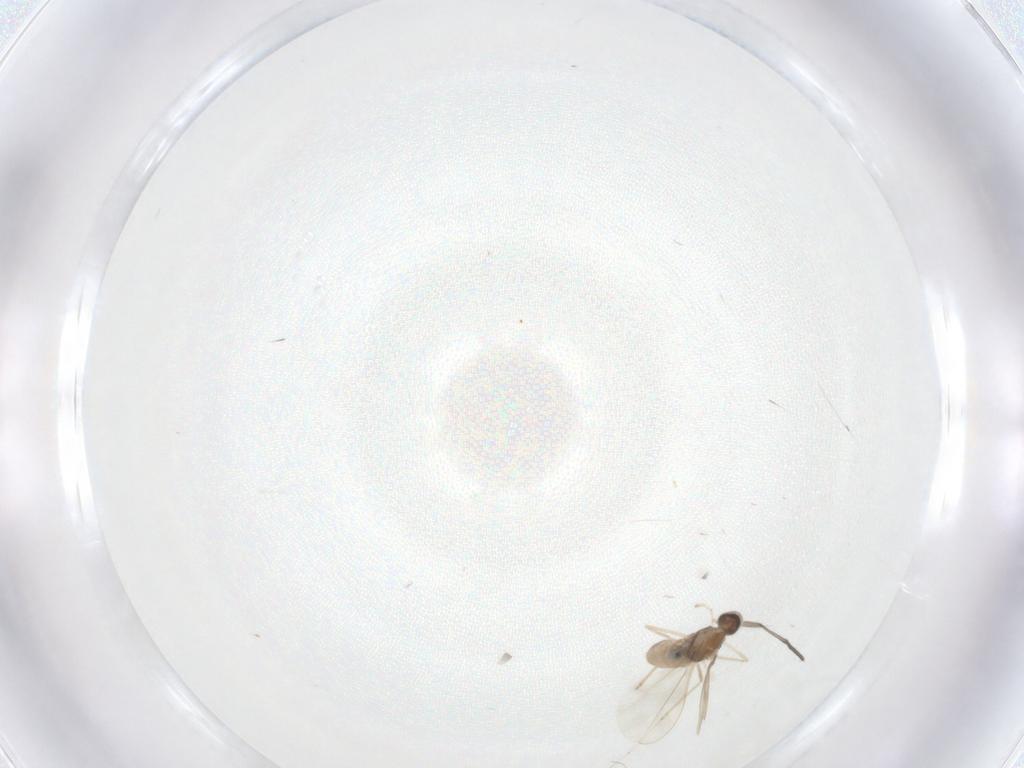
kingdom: Animalia
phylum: Arthropoda
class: Insecta
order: Diptera
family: Cecidomyiidae
